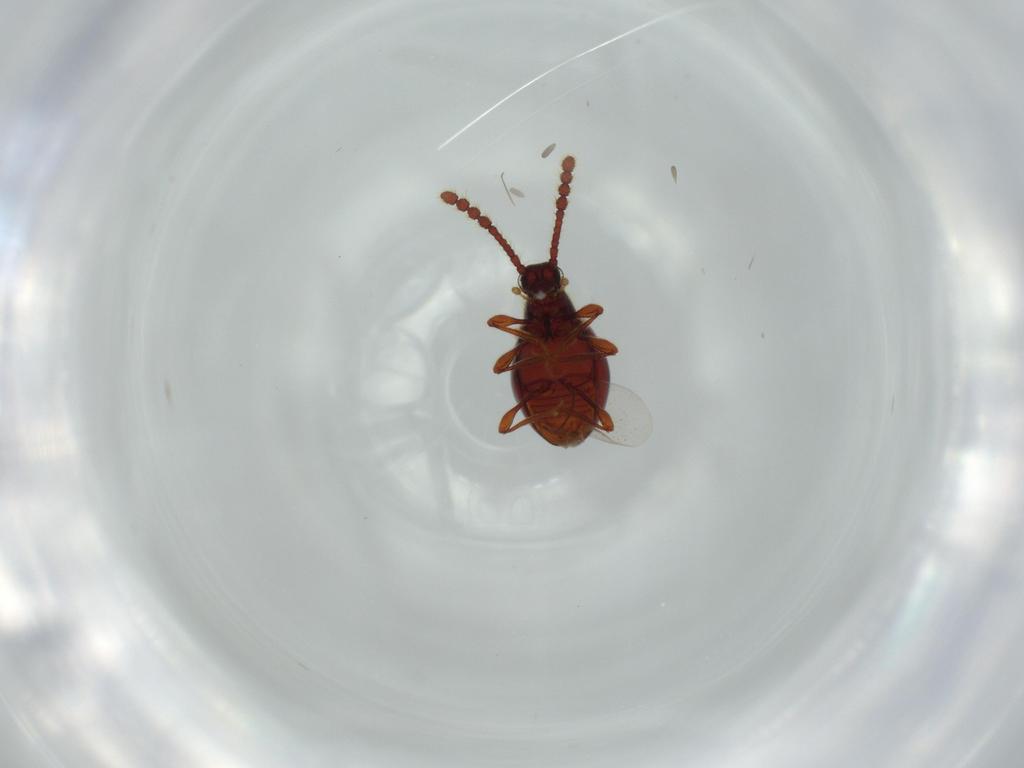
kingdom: Animalia
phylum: Arthropoda
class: Insecta
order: Coleoptera
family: Staphylinidae
